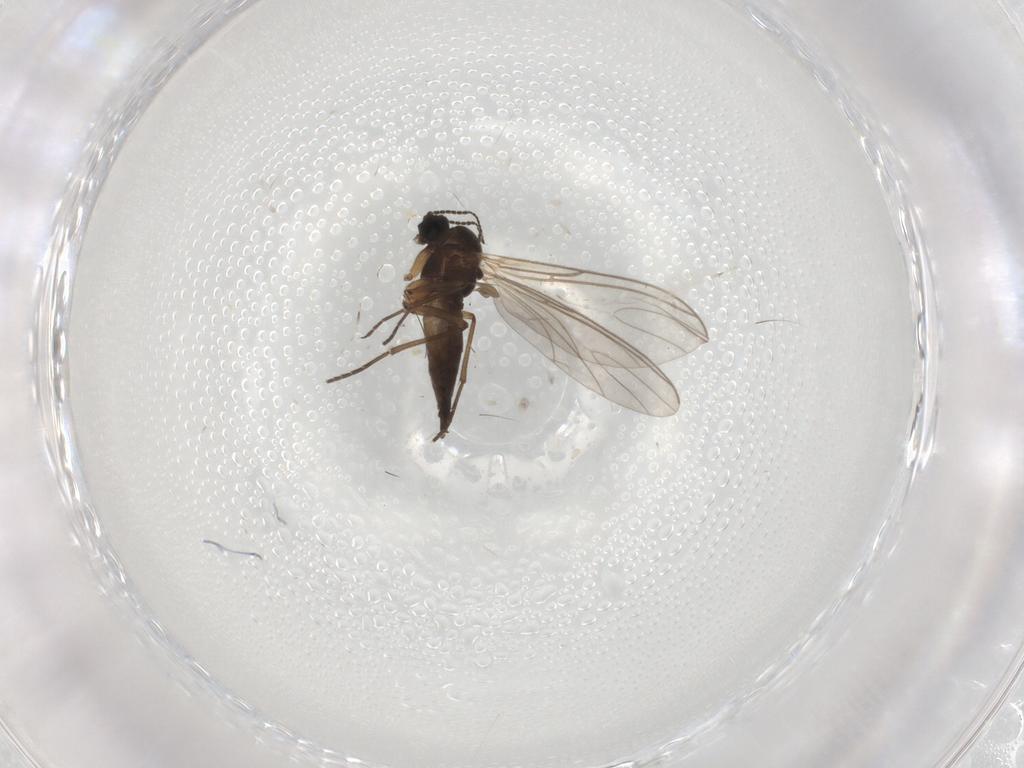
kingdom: Animalia
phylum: Arthropoda
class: Insecta
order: Diptera
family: Sciaridae
